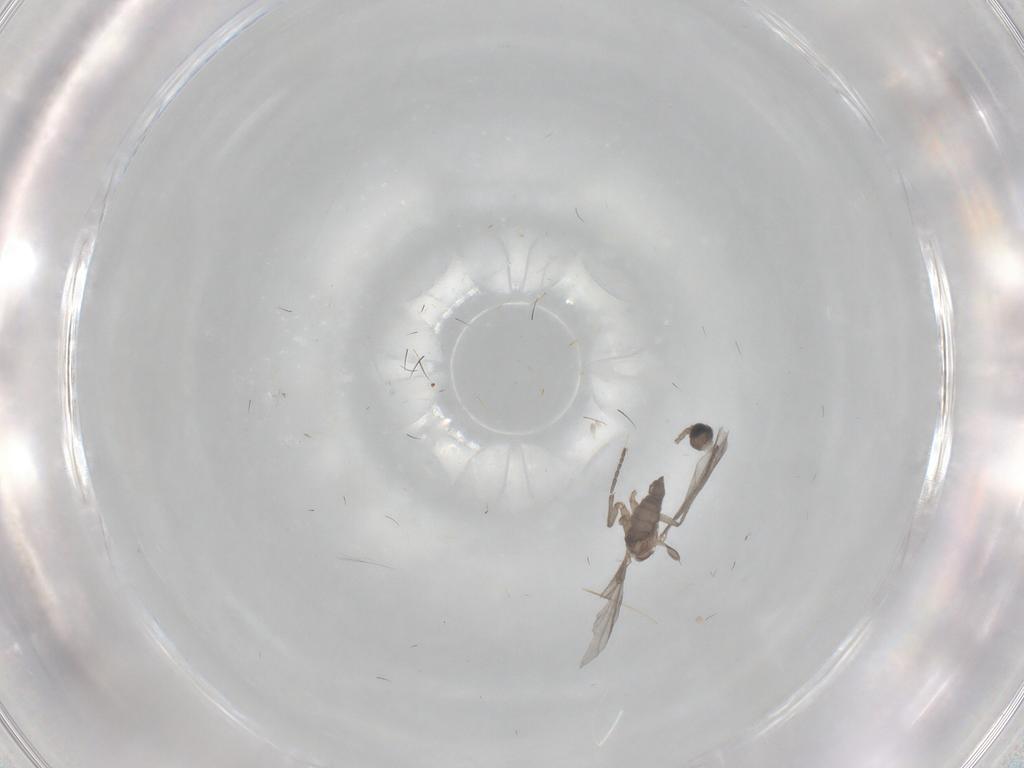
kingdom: Animalia
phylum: Arthropoda
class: Insecta
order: Diptera
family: Sciaridae
